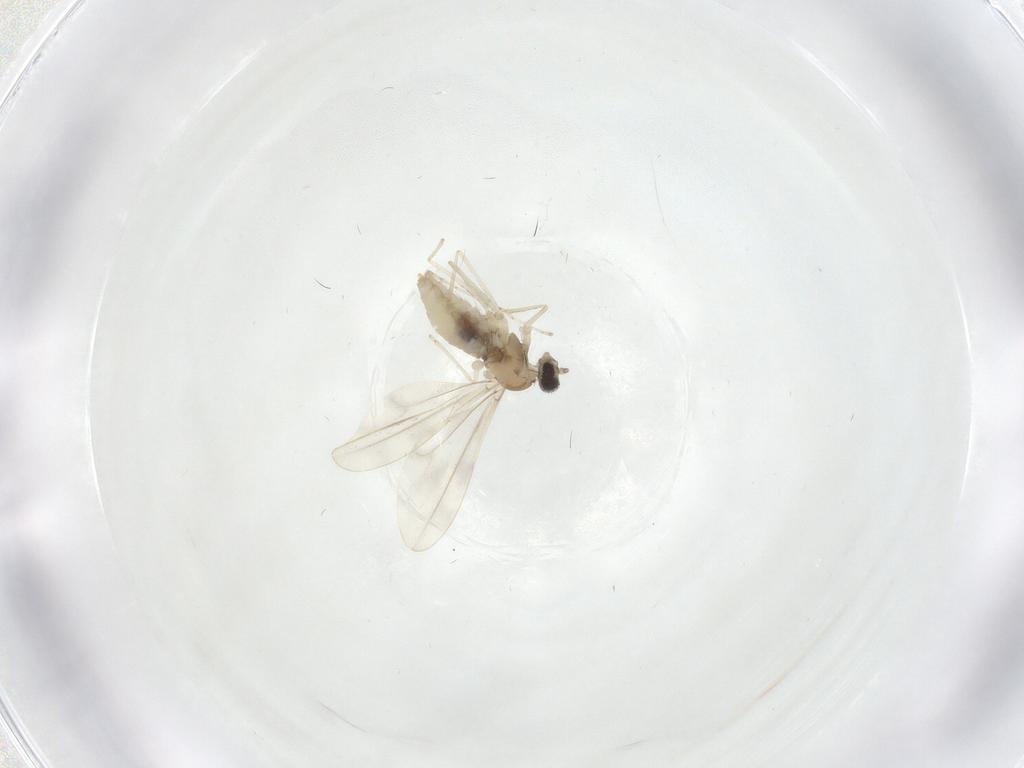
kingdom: Animalia
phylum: Arthropoda
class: Insecta
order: Diptera
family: Cecidomyiidae
